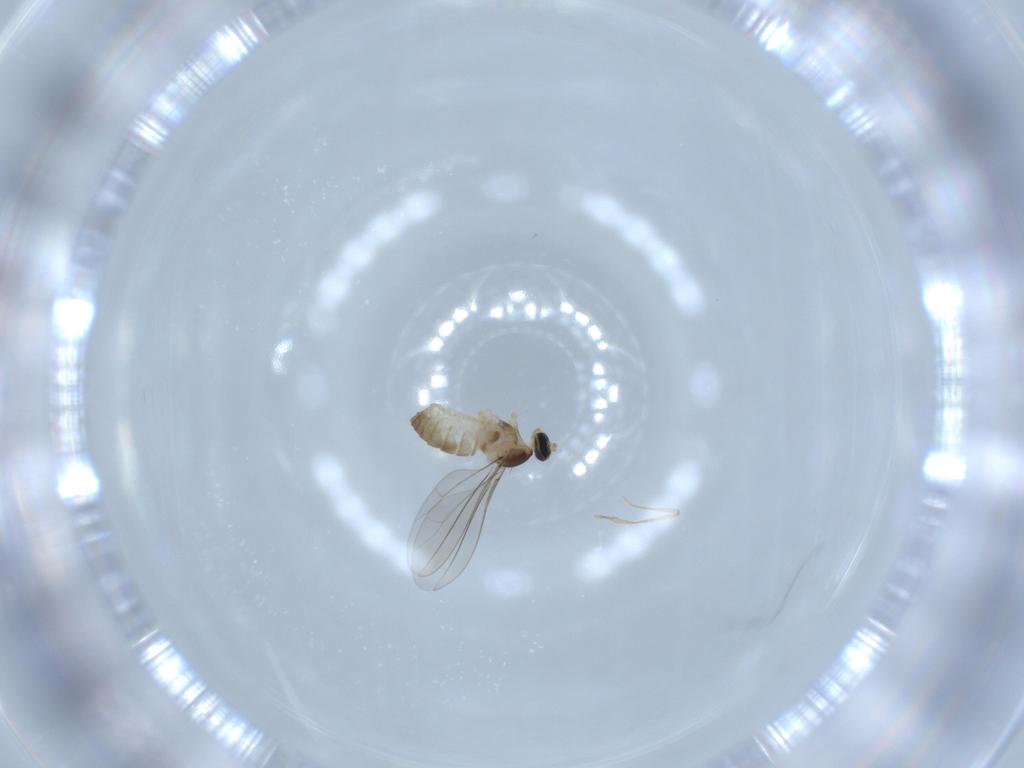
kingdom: Animalia
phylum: Arthropoda
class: Insecta
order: Diptera
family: Cecidomyiidae
